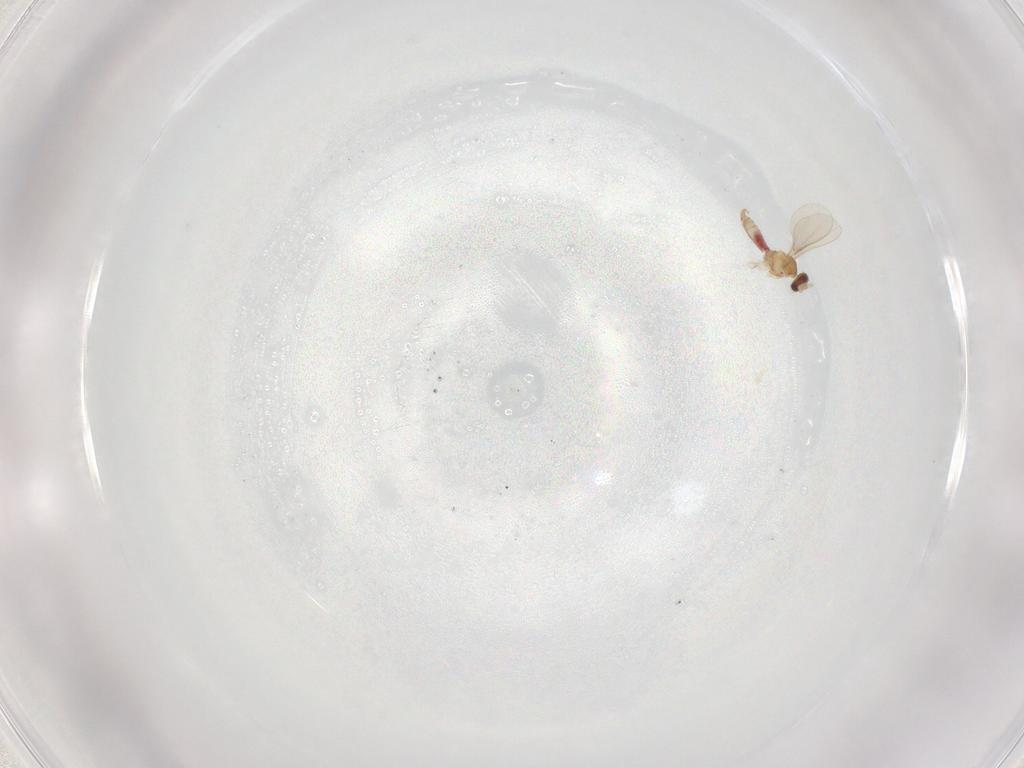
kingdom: Animalia
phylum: Arthropoda
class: Insecta
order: Diptera
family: Cecidomyiidae
